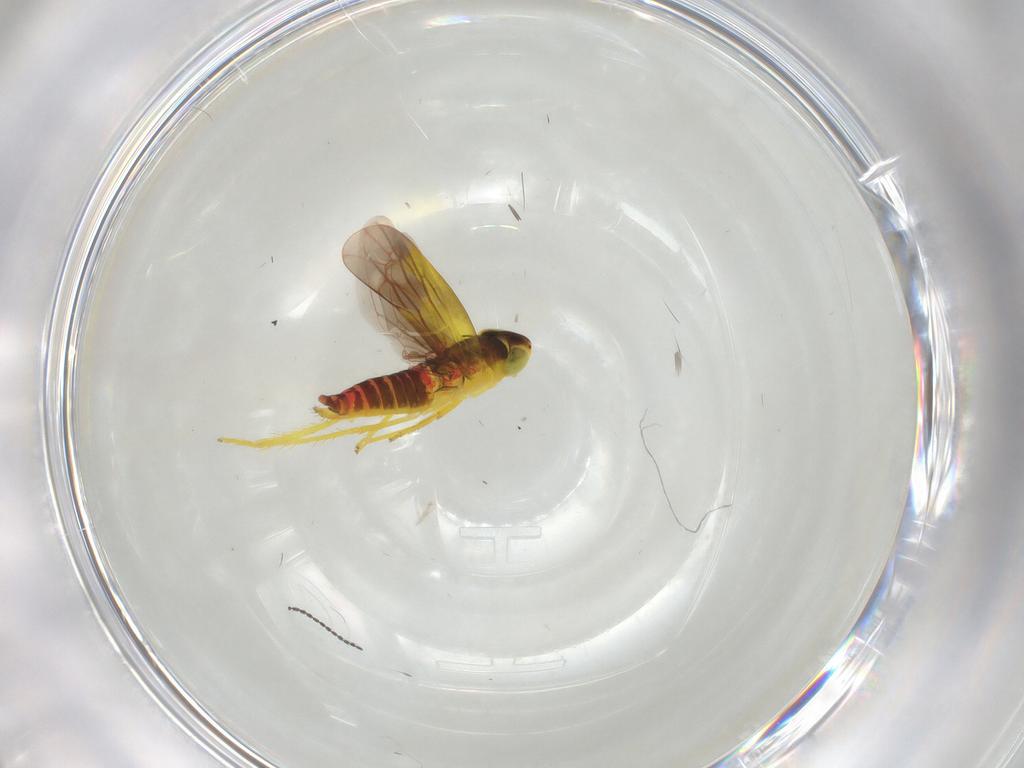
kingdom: Animalia
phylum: Arthropoda
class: Insecta
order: Hemiptera
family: Cicadellidae
